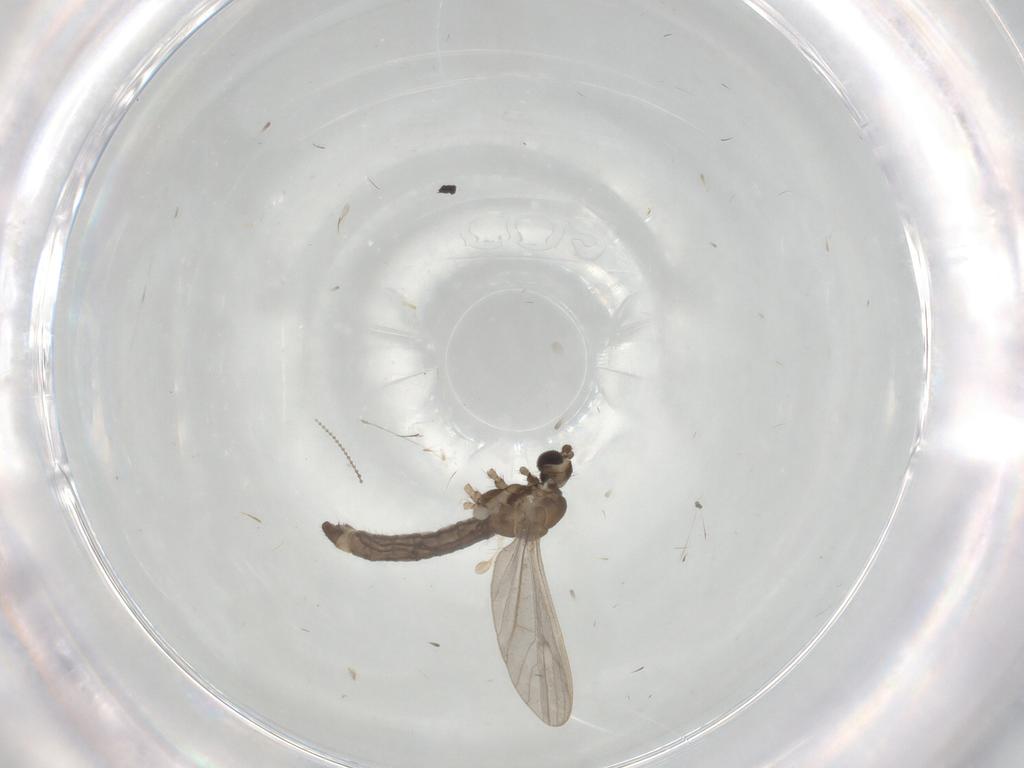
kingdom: Animalia
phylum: Arthropoda
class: Insecta
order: Diptera
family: Limoniidae
